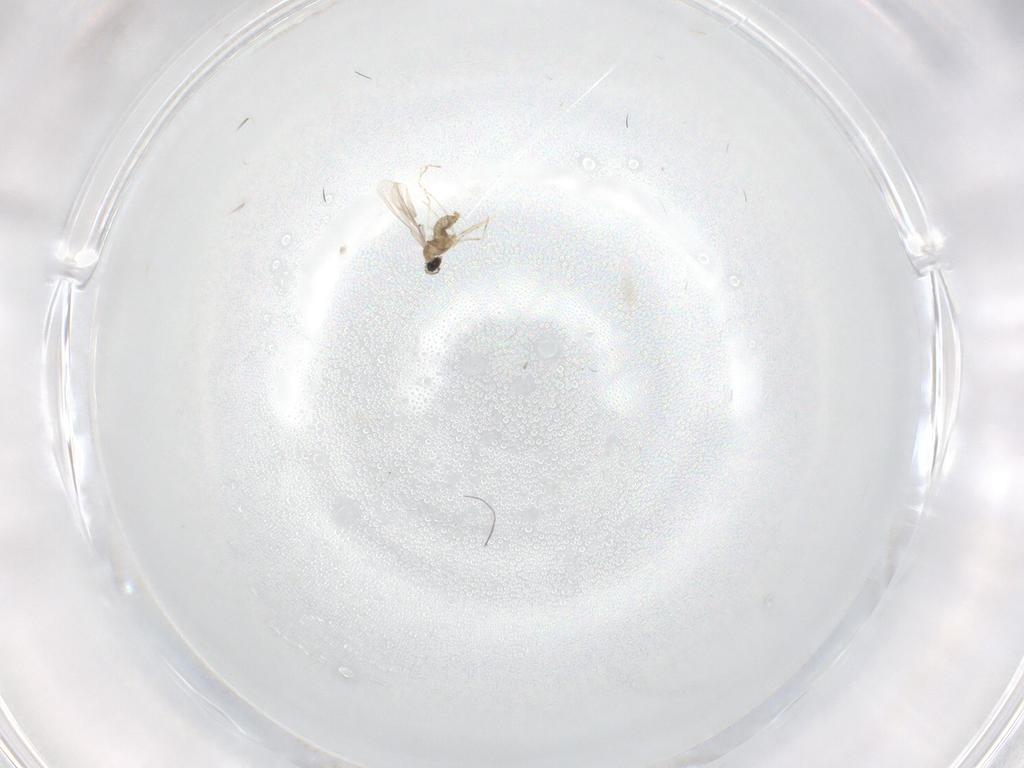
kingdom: Animalia
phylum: Arthropoda
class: Insecta
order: Diptera
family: Cecidomyiidae
